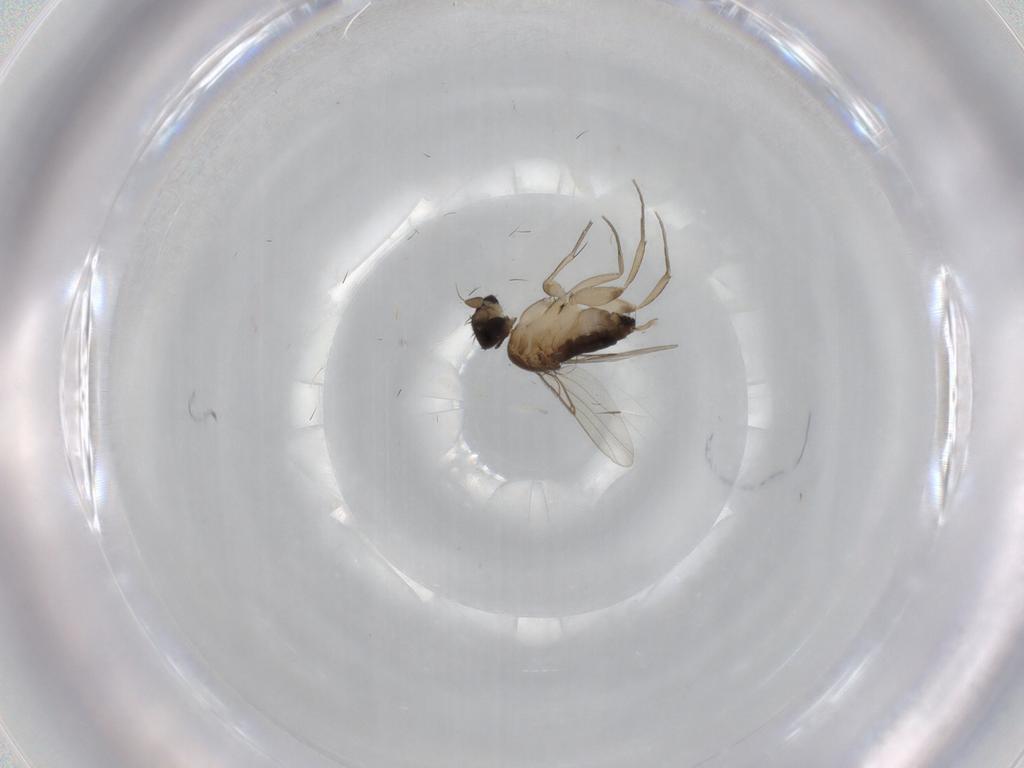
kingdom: Animalia
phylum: Arthropoda
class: Insecta
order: Diptera
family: Phoridae
